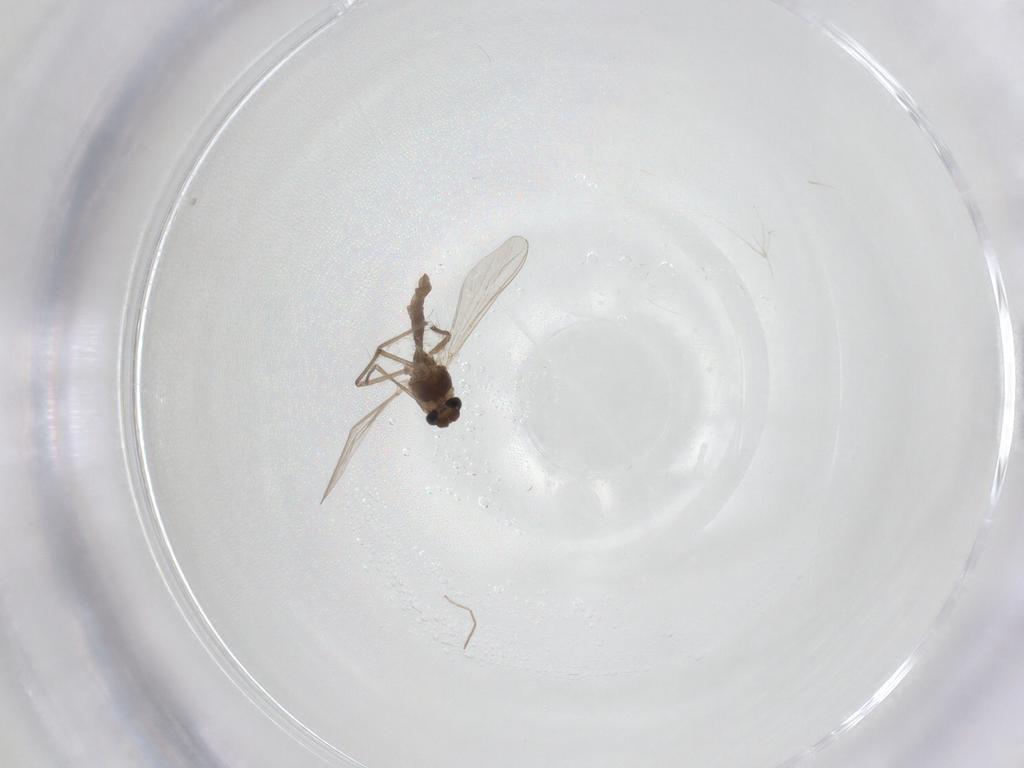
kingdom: Animalia
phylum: Arthropoda
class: Insecta
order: Diptera
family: Chironomidae
